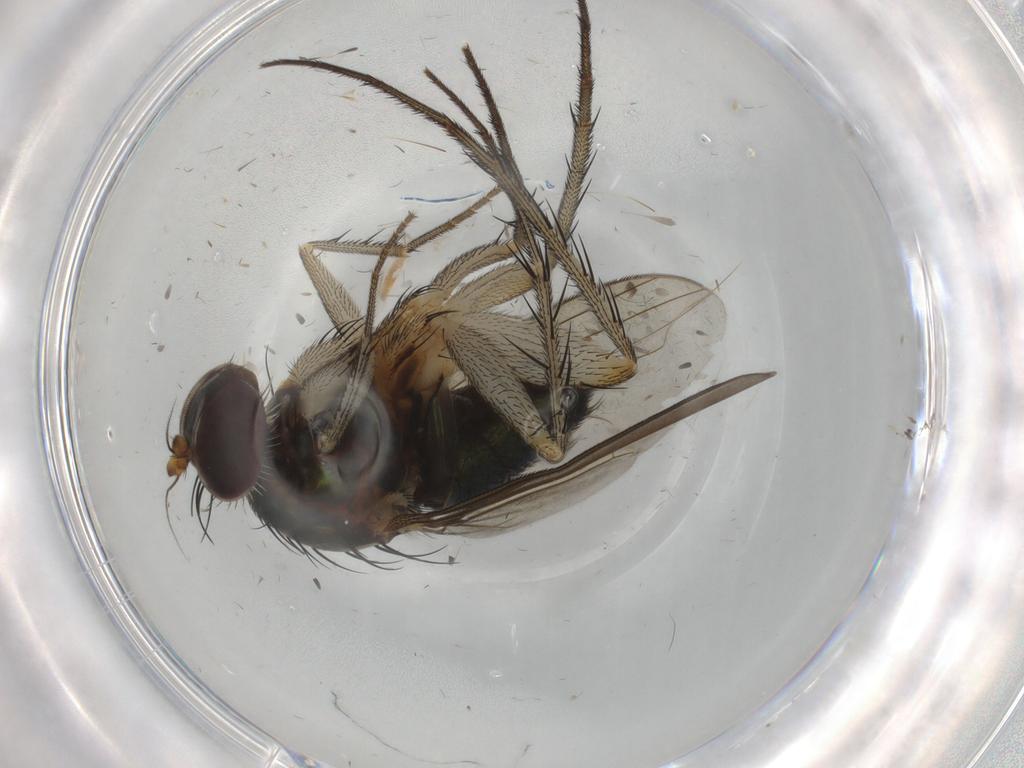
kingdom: Animalia
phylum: Arthropoda
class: Insecta
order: Diptera
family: Dolichopodidae
